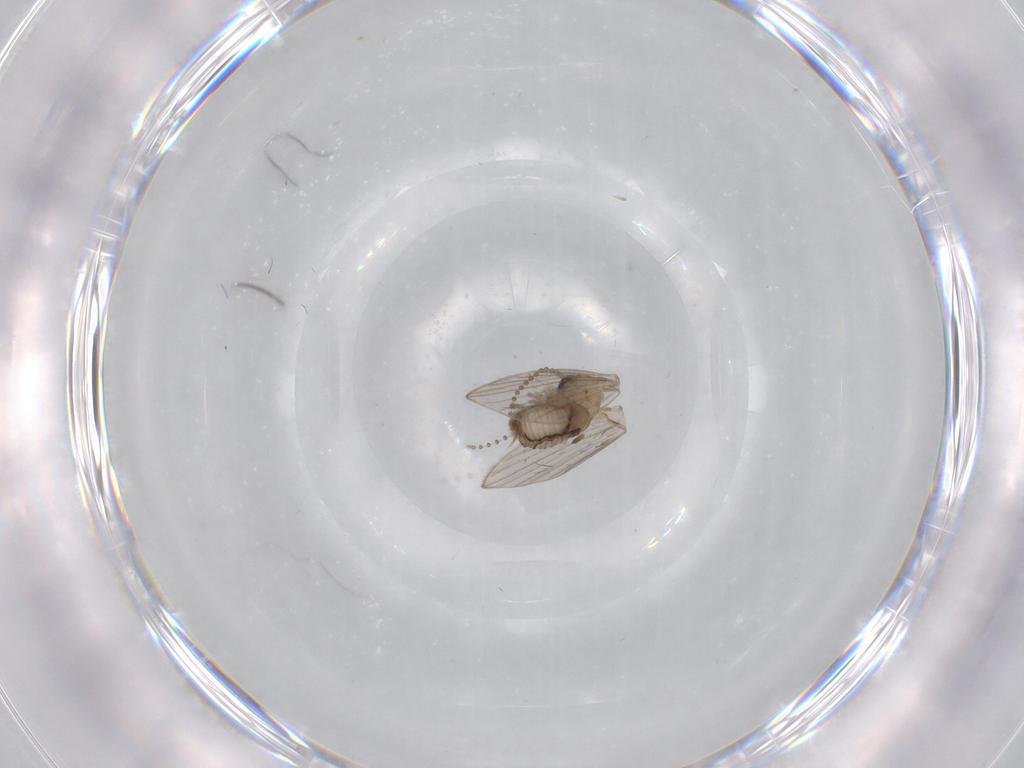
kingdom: Animalia
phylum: Arthropoda
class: Insecta
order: Diptera
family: Psychodidae
